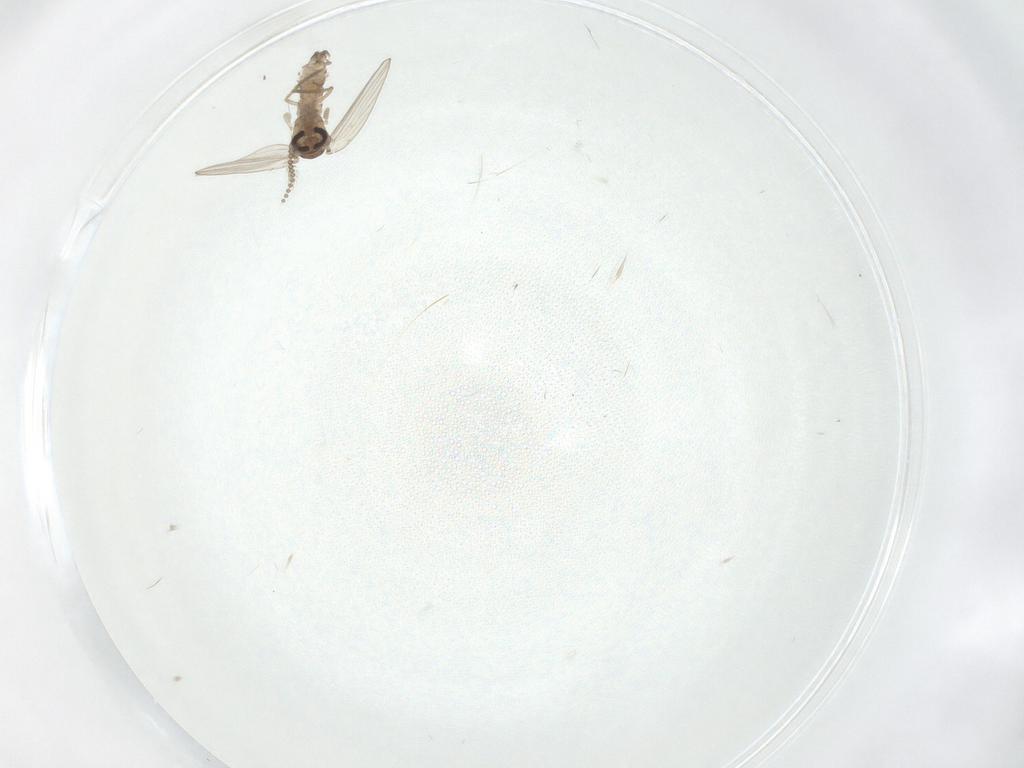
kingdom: Animalia
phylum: Arthropoda
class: Insecta
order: Diptera
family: Psychodidae
